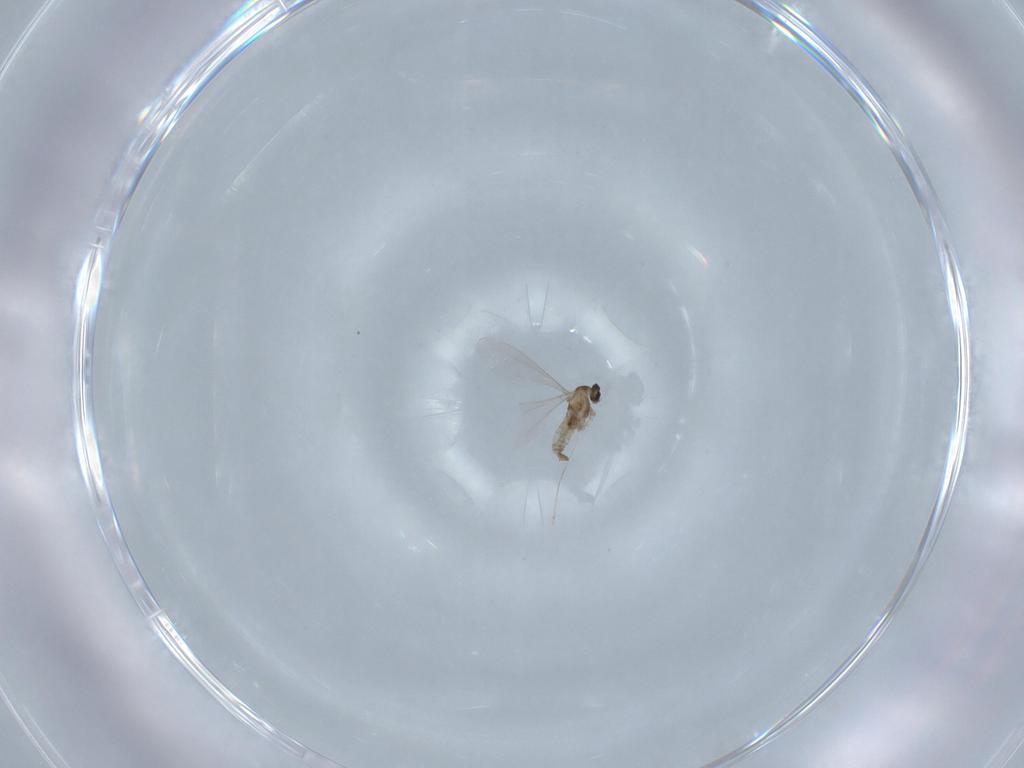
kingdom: Animalia
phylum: Arthropoda
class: Insecta
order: Diptera
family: Cecidomyiidae
